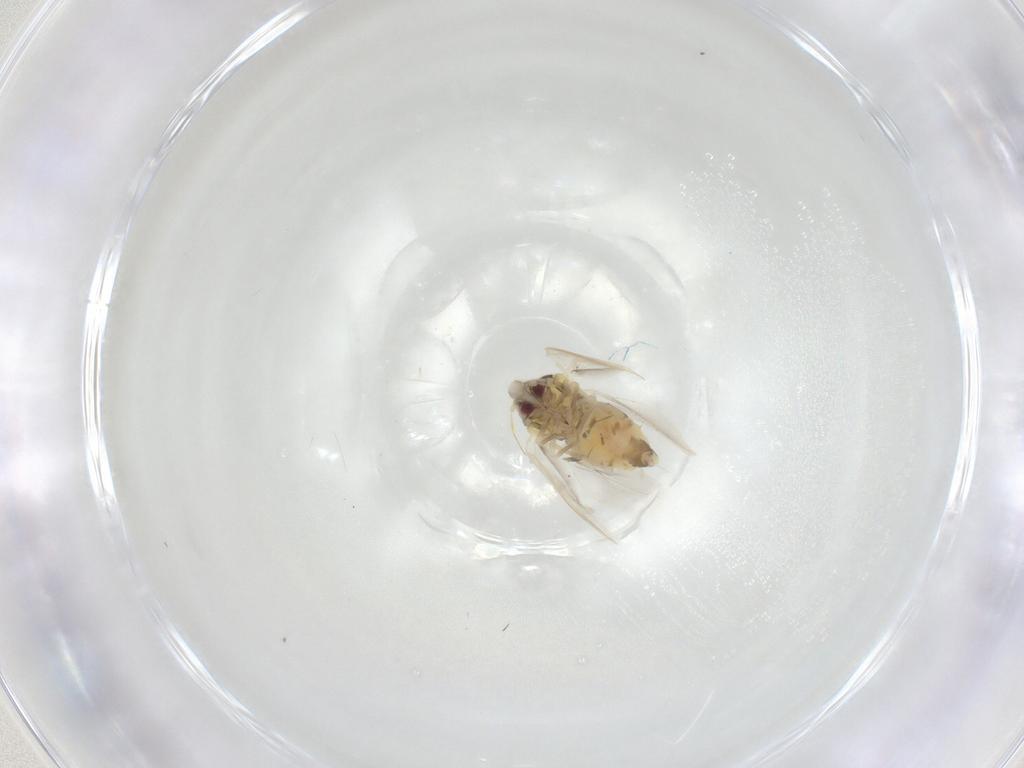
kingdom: Animalia
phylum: Arthropoda
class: Insecta
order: Hemiptera
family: Aleyrodidae
